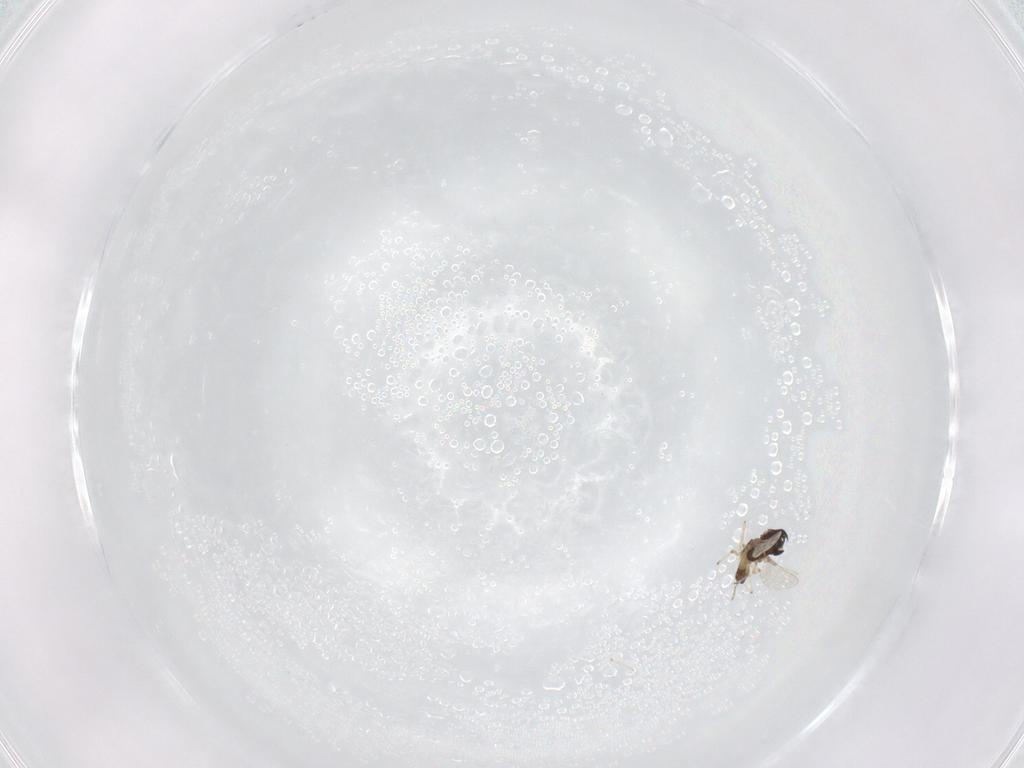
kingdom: Animalia
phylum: Arthropoda
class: Insecta
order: Diptera
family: Chironomidae
